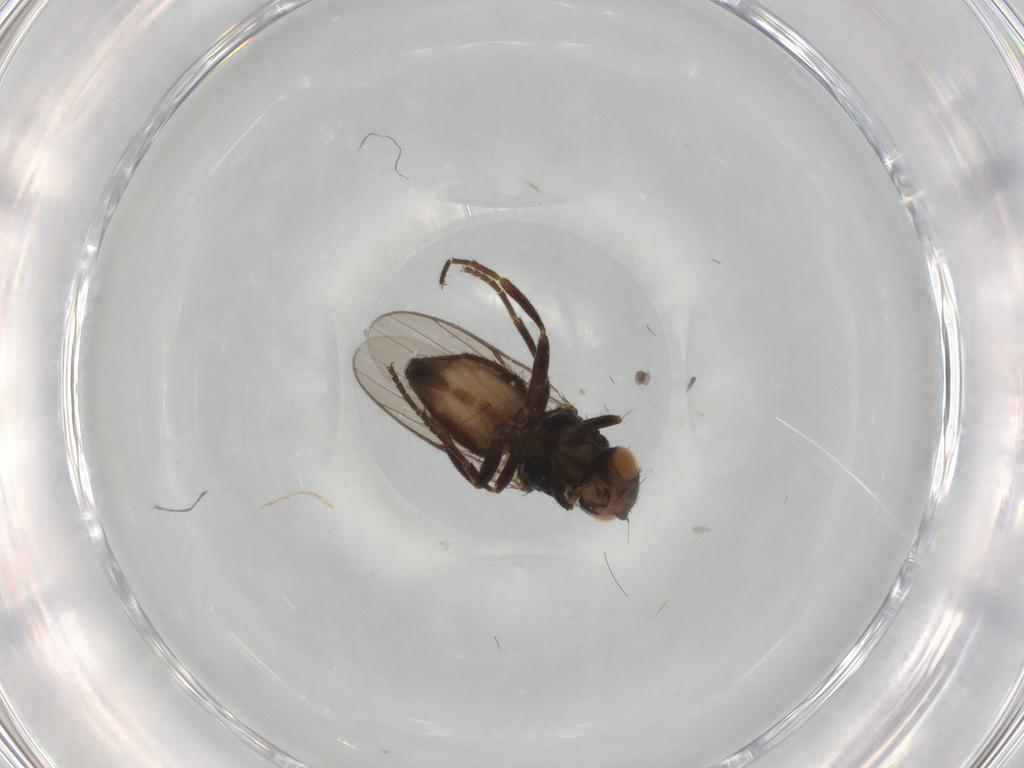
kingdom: Animalia
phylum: Arthropoda
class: Insecta
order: Diptera
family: Chloropidae
